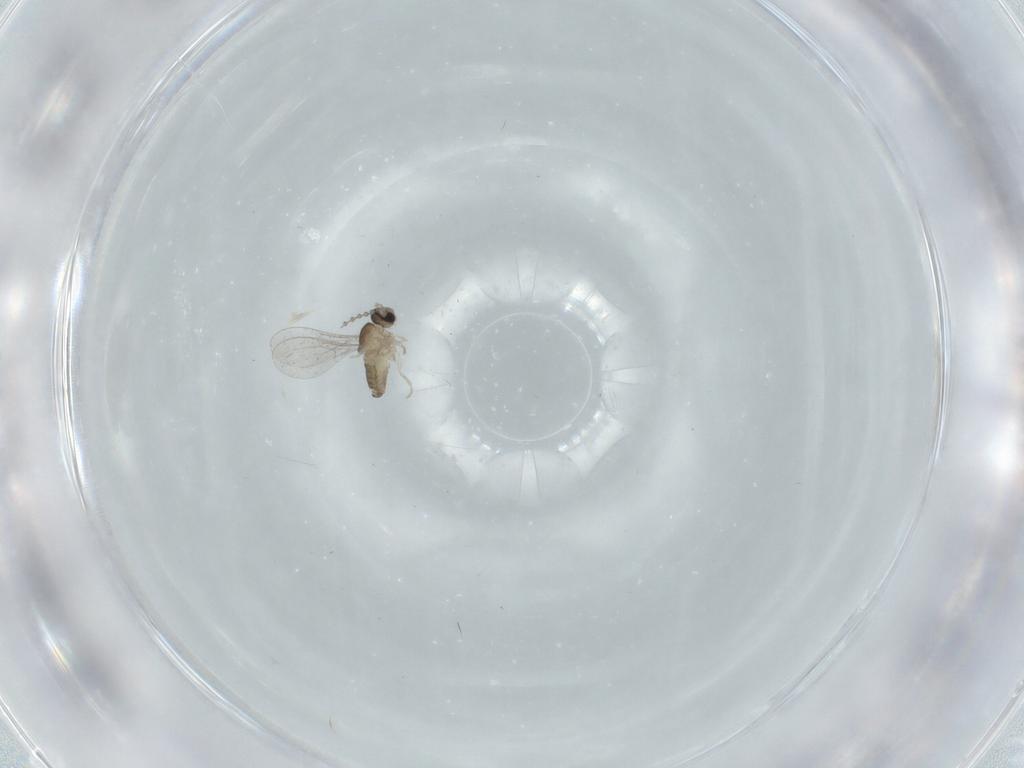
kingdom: Animalia
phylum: Arthropoda
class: Insecta
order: Diptera
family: Cecidomyiidae
